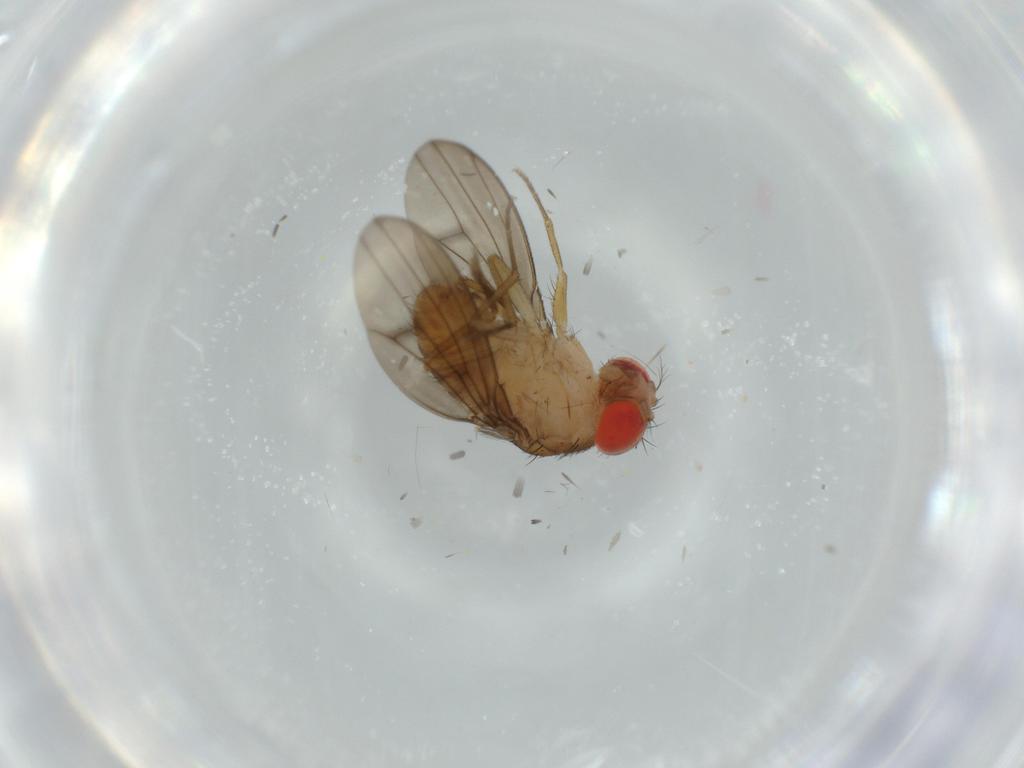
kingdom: Animalia
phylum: Arthropoda
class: Insecta
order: Diptera
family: Drosophilidae
